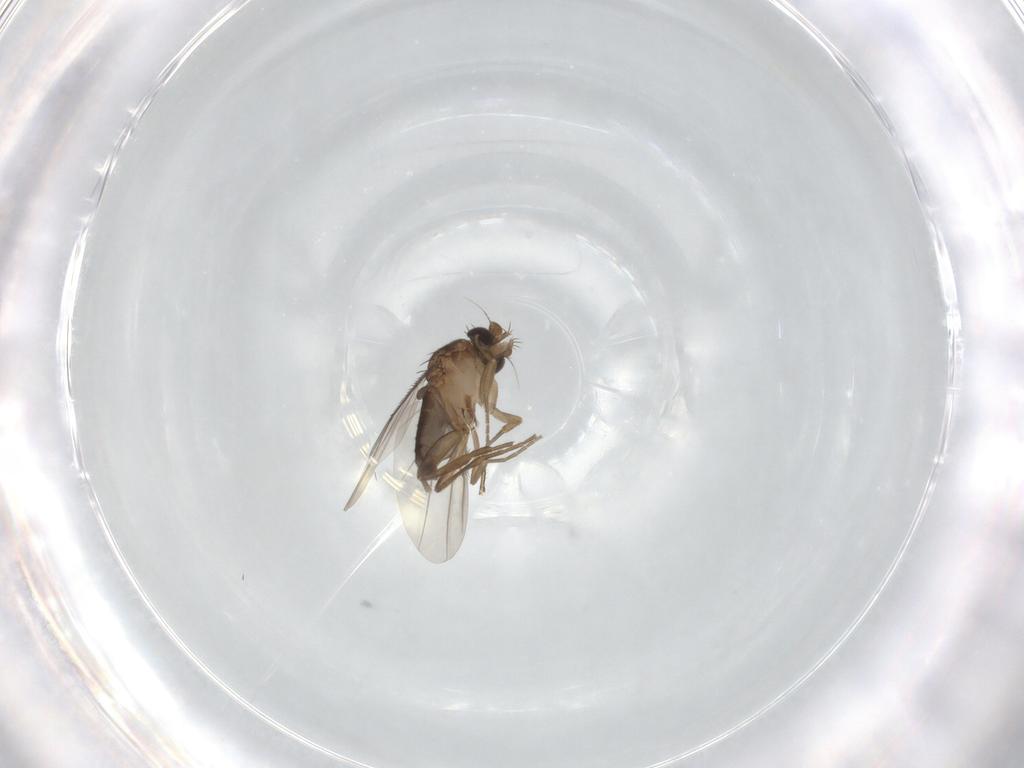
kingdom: Animalia
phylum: Arthropoda
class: Insecta
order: Diptera
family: Phoridae
